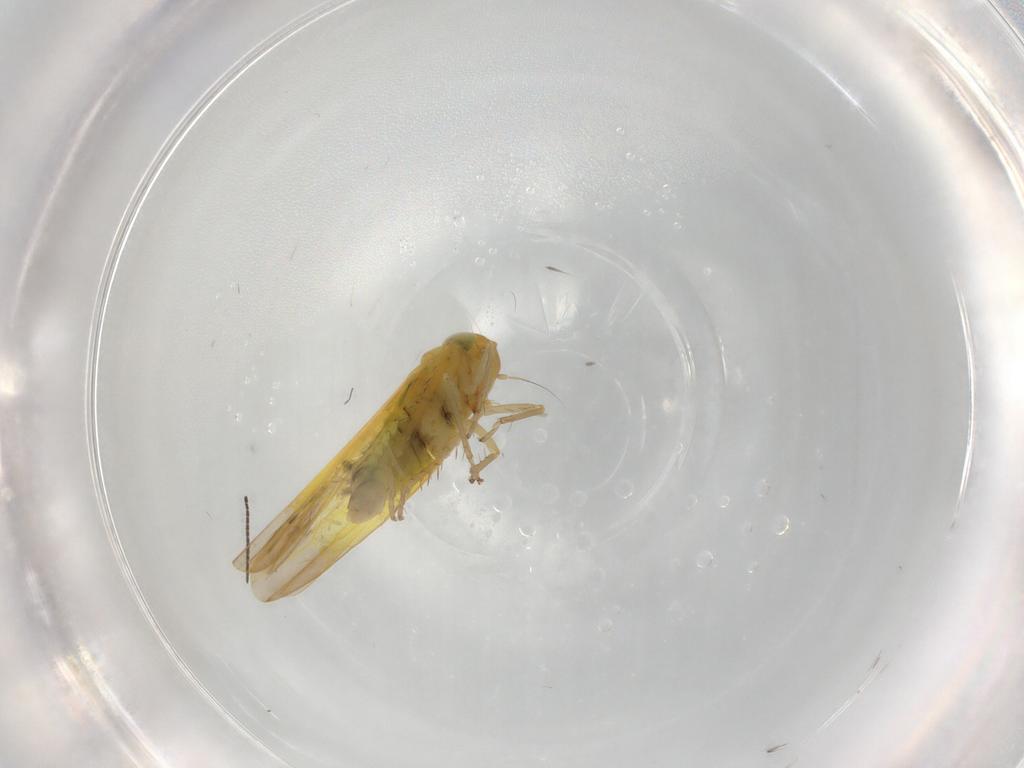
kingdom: Animalia
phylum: Arthropoda
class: Insecta
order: Hemiptera
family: Cicadellidae
